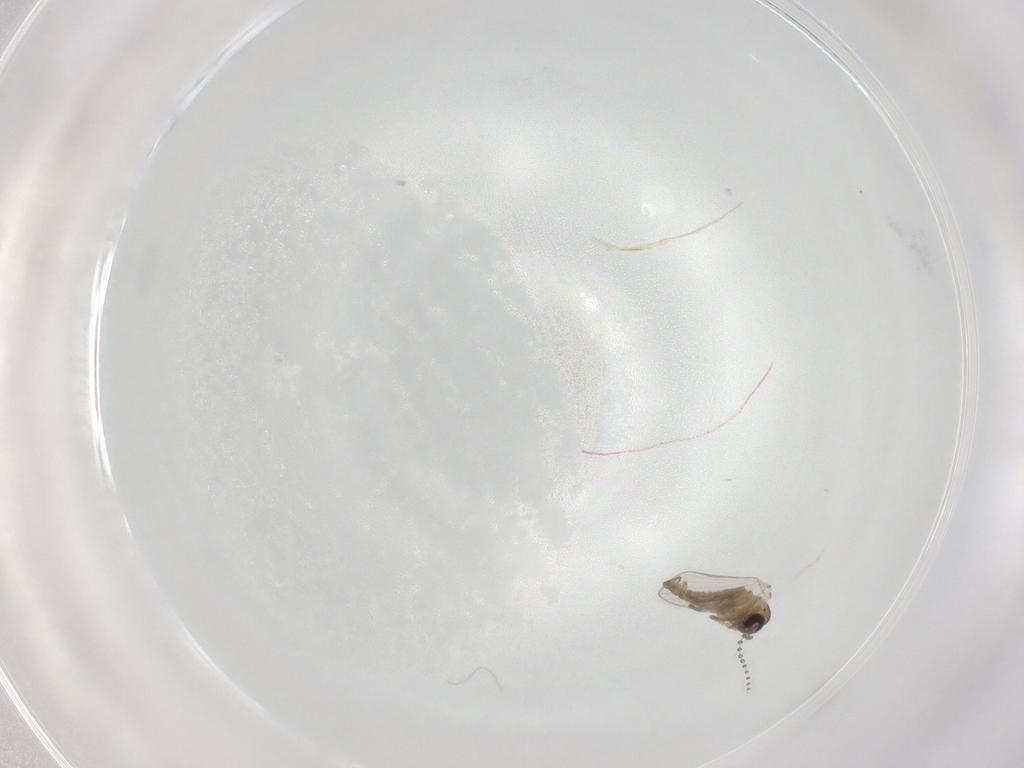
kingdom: Animalia
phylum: Arthropoda
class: Insecta
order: Diptera
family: Psychodidae
